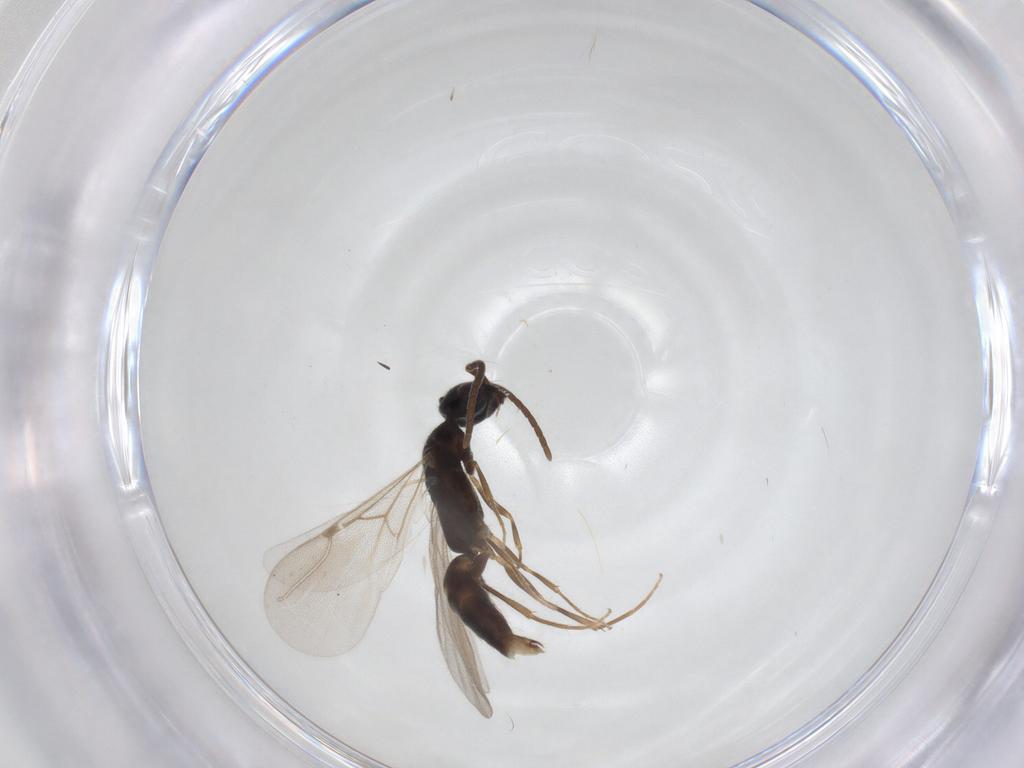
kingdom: Animalia
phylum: Arthropoda
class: Insecta
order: Hymenoptera
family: Bethylidae
